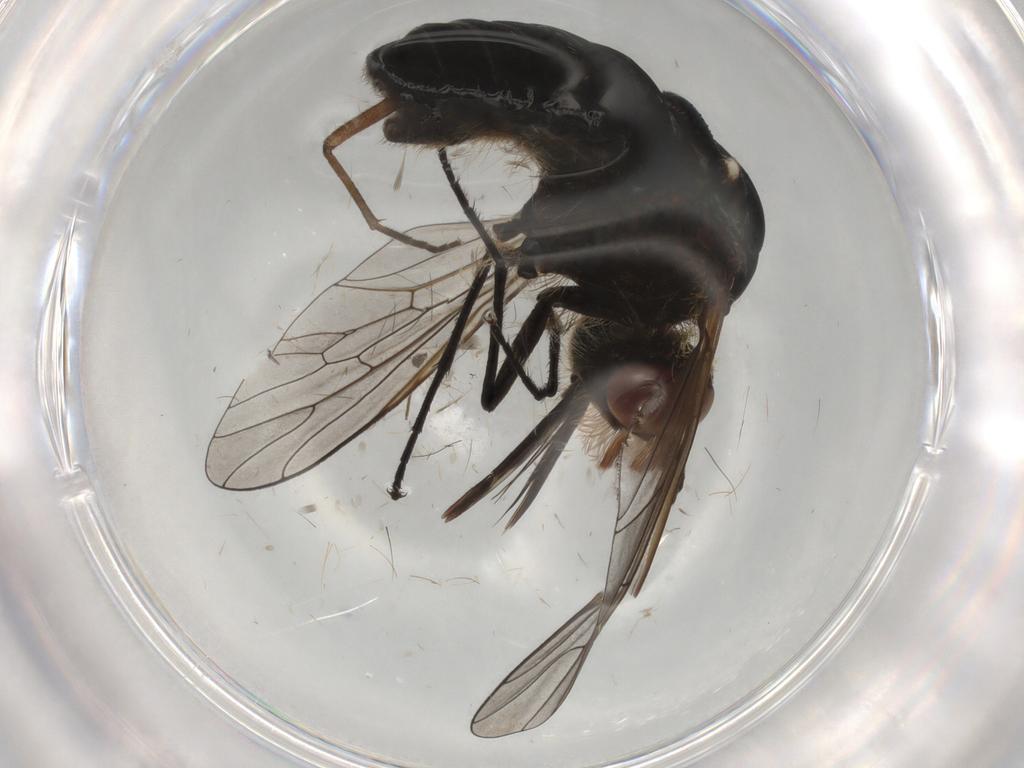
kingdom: Animalia
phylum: Arthropoda
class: Insecta
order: Diptera
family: Bombyliidae
